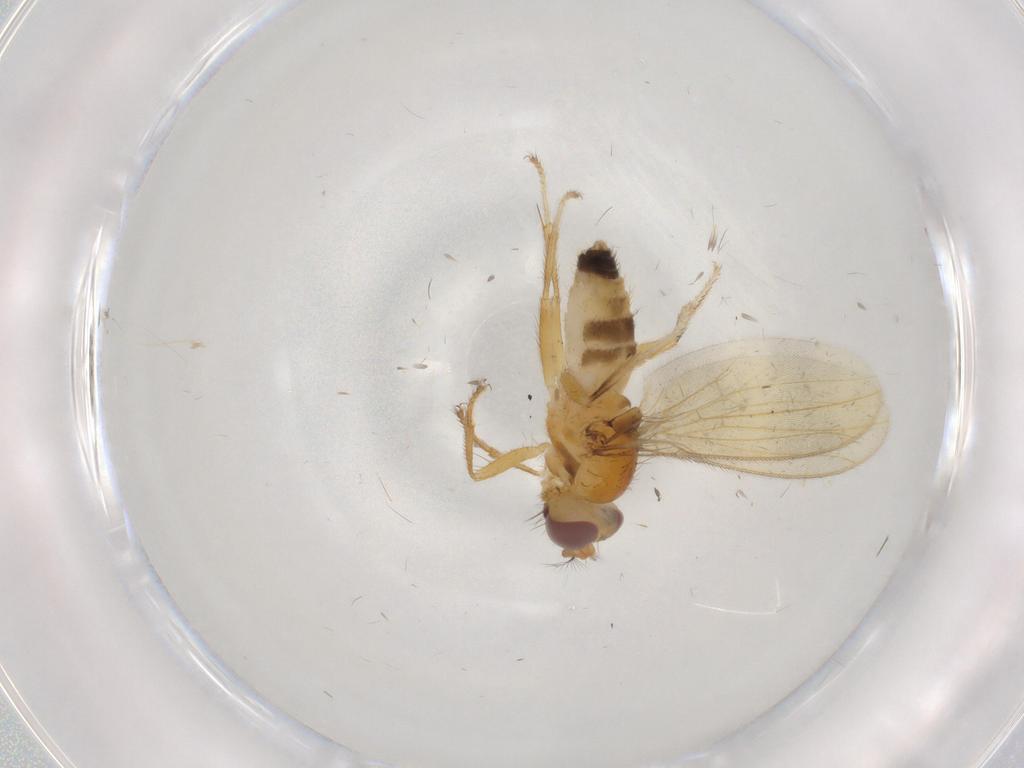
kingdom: Animalia
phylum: Arthropoda
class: Insecta
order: Diptera
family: Periscelididae
